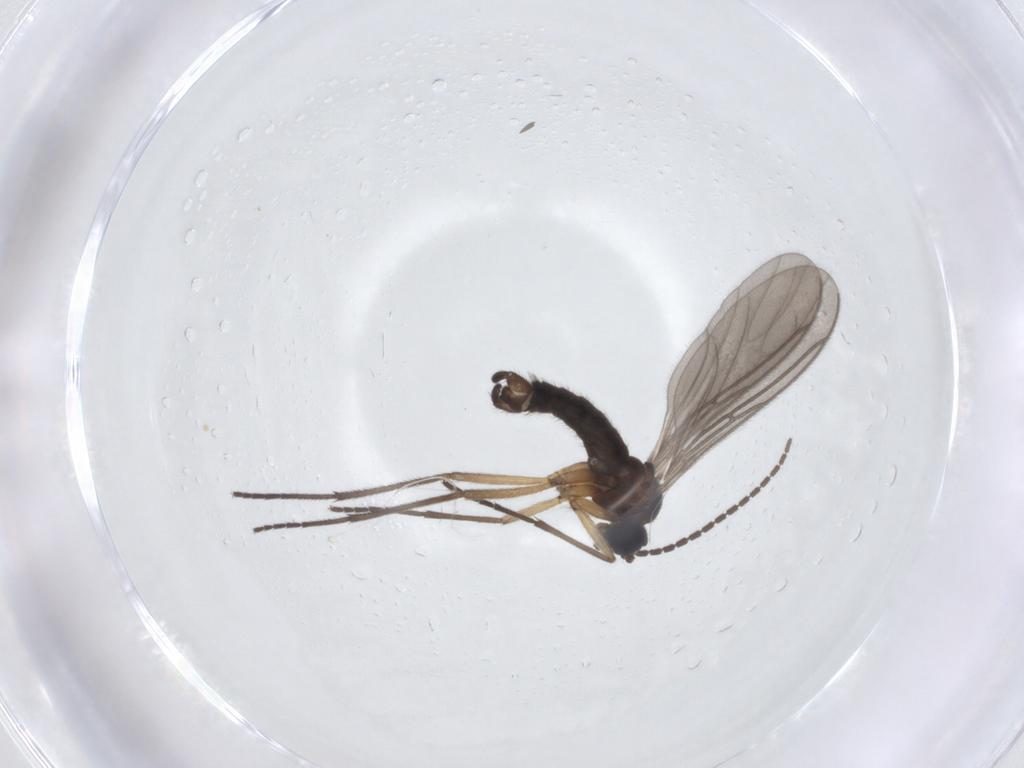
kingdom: Animalia
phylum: Arthropoda
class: Insecta
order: Diptera
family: Sciaridae
